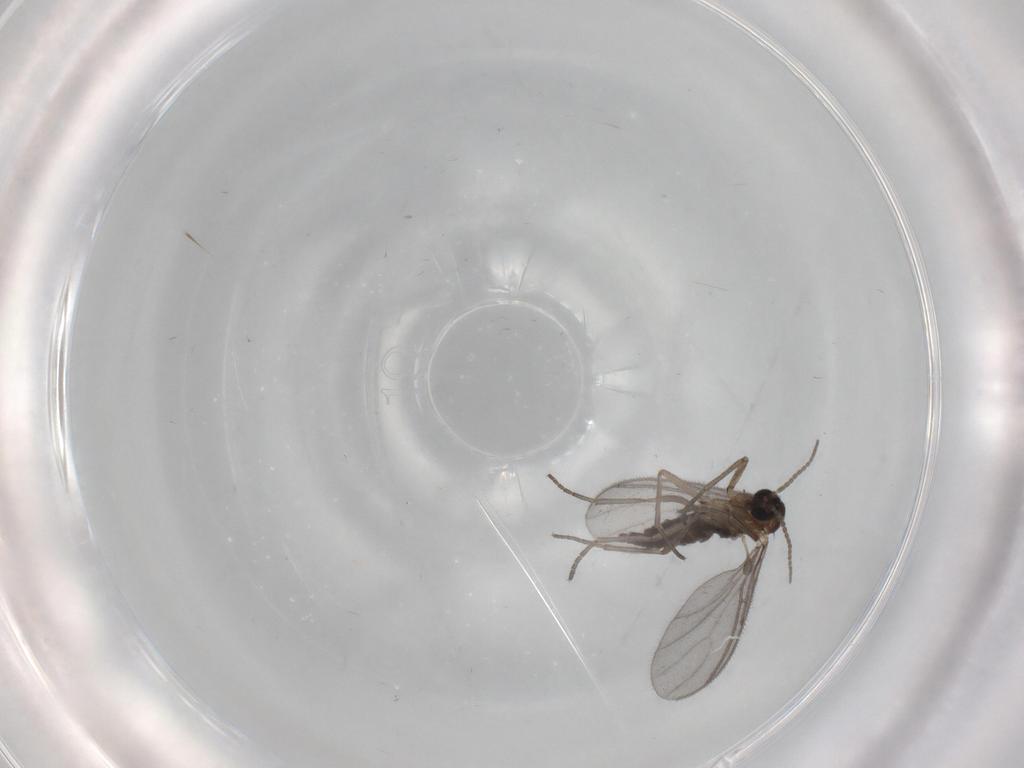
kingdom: Animalia
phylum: Arthropoda
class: Insecta
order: Diptera
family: Sciaridae
